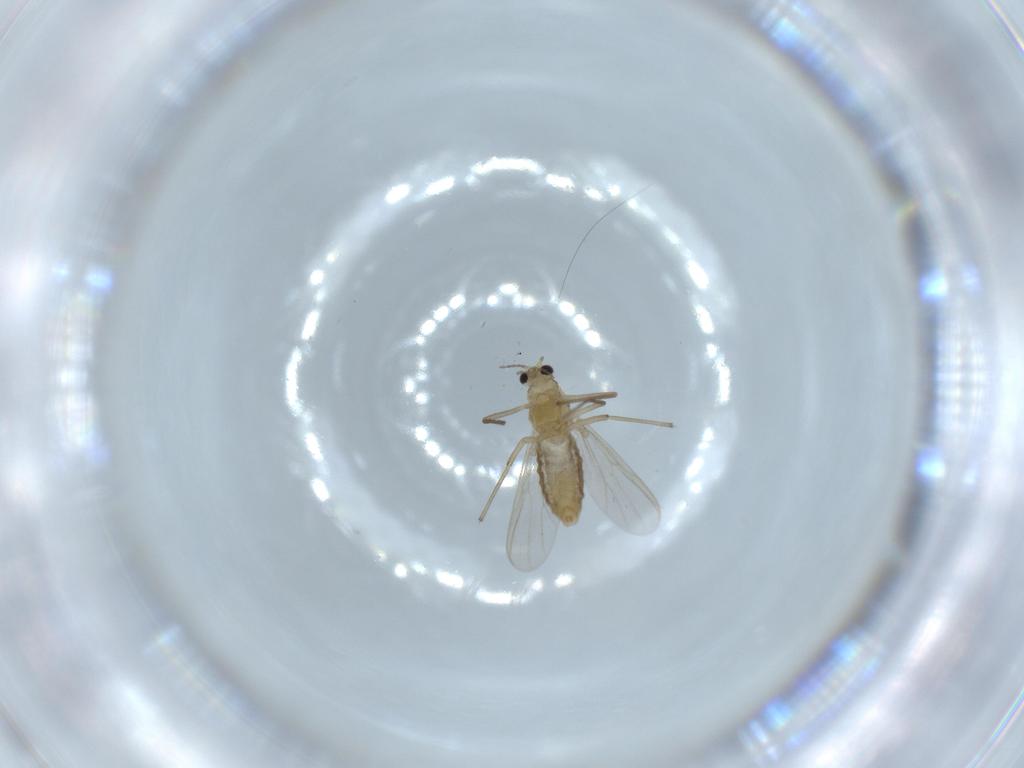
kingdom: Animalia
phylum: Arthropoda
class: Insecta
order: Diptera
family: Chironomidae
